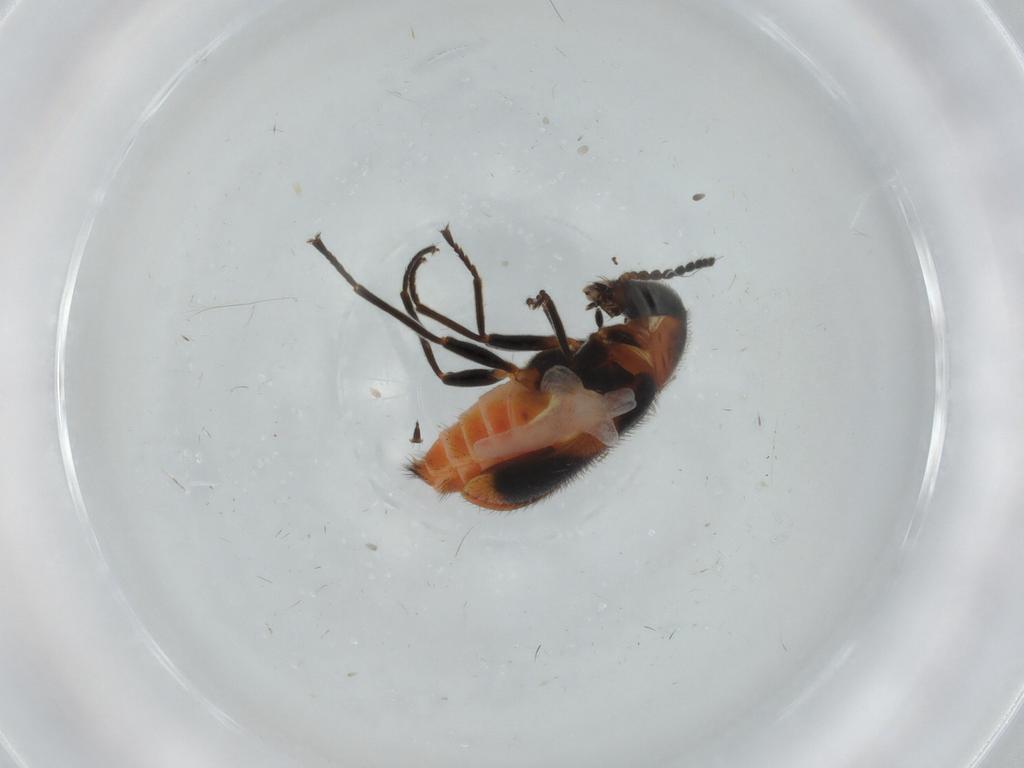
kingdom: Animalia
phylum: Arthropoda
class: Insecta
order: Coleoptera
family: Melyridae
